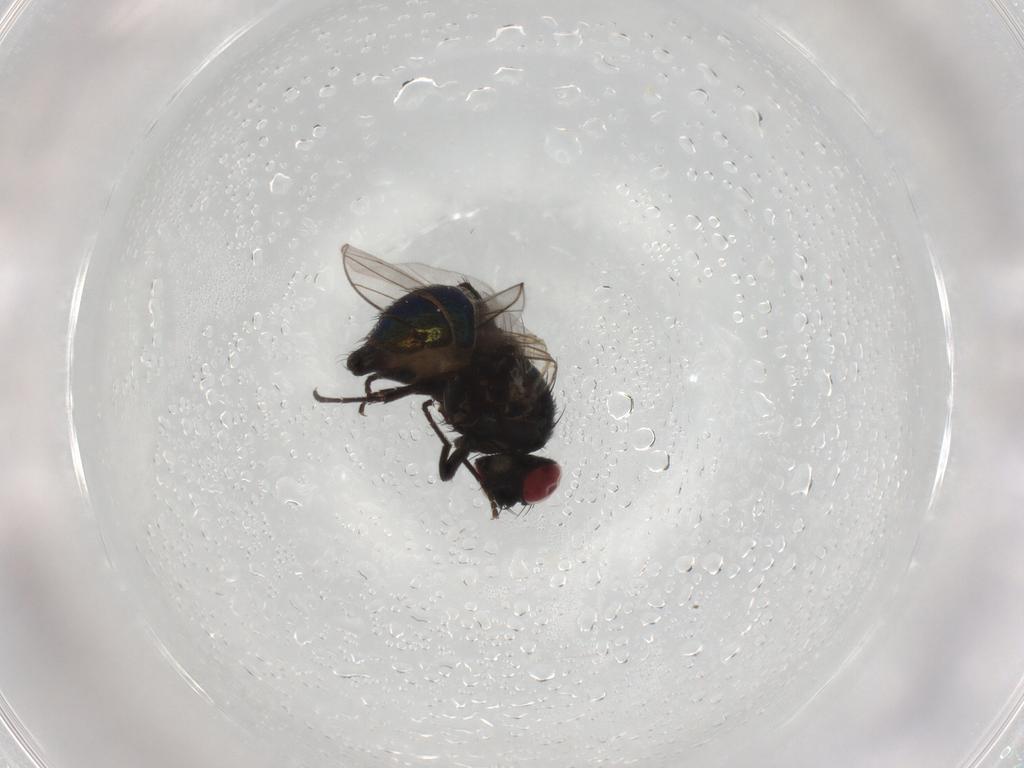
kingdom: Animalia
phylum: Arthropoda
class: Insecta
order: Diptera
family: Agromyzidae
